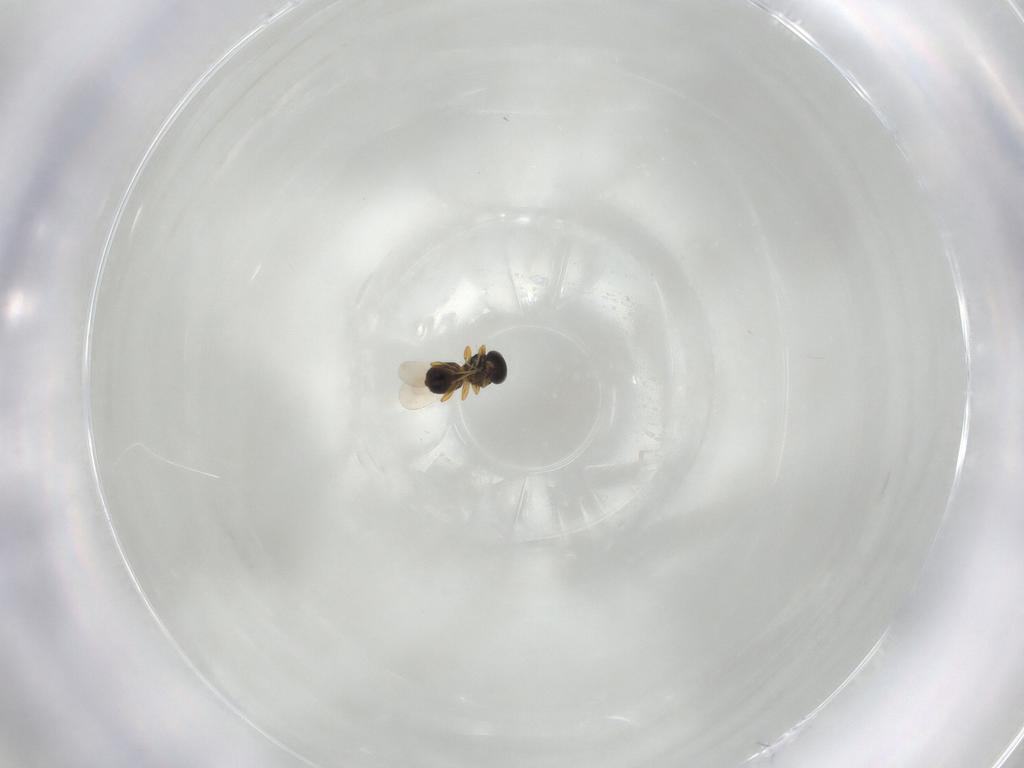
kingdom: Animalia
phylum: Arthropoda
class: Insecta
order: Hymenoptera
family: Platygastridae
